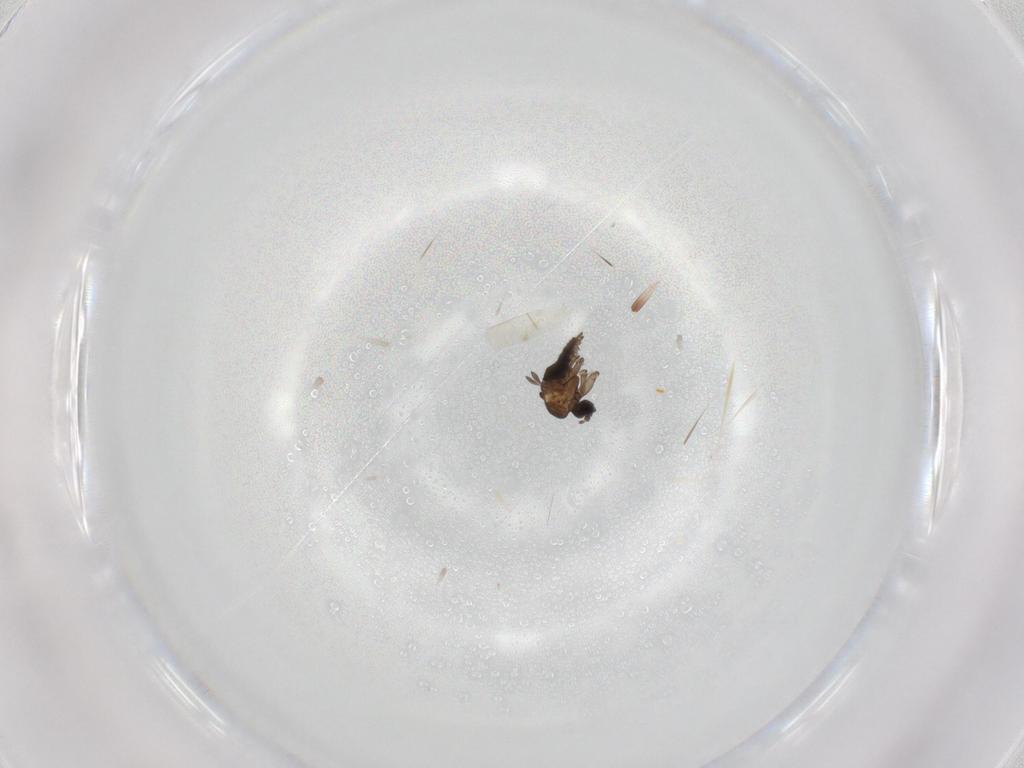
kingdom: Animalia
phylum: Arthropoda
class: Insecta
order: Diptera
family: Sciaridae
